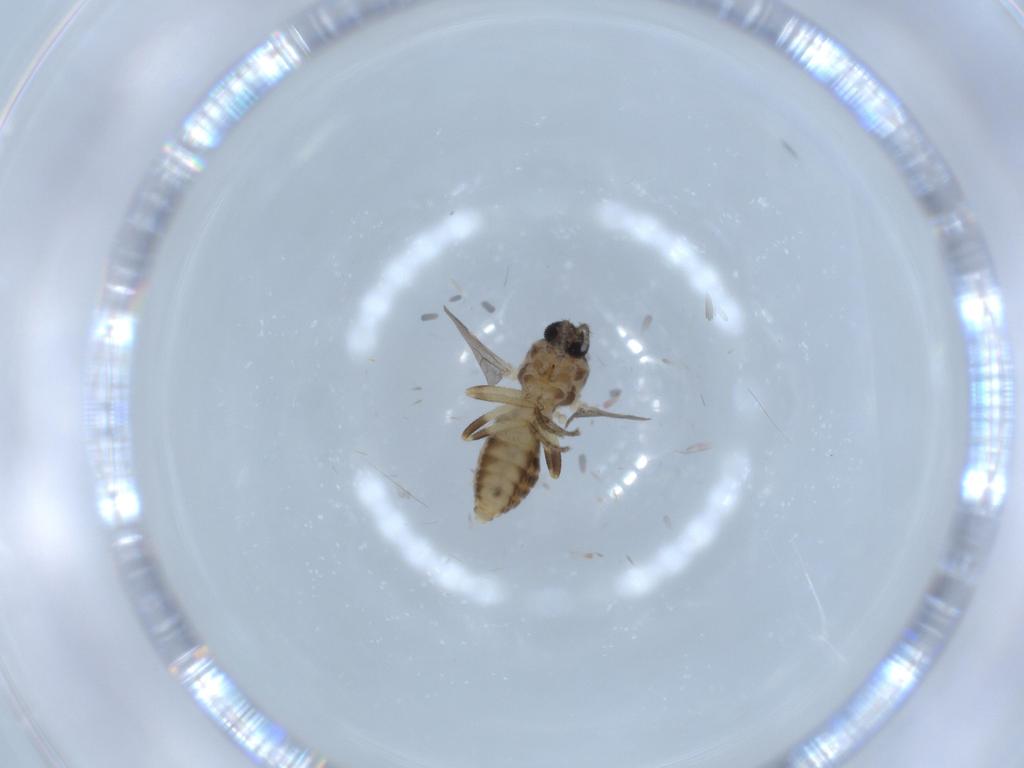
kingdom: Animalia
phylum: Arthropoda
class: Insecta
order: Diptera
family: Ceratopogonidae
